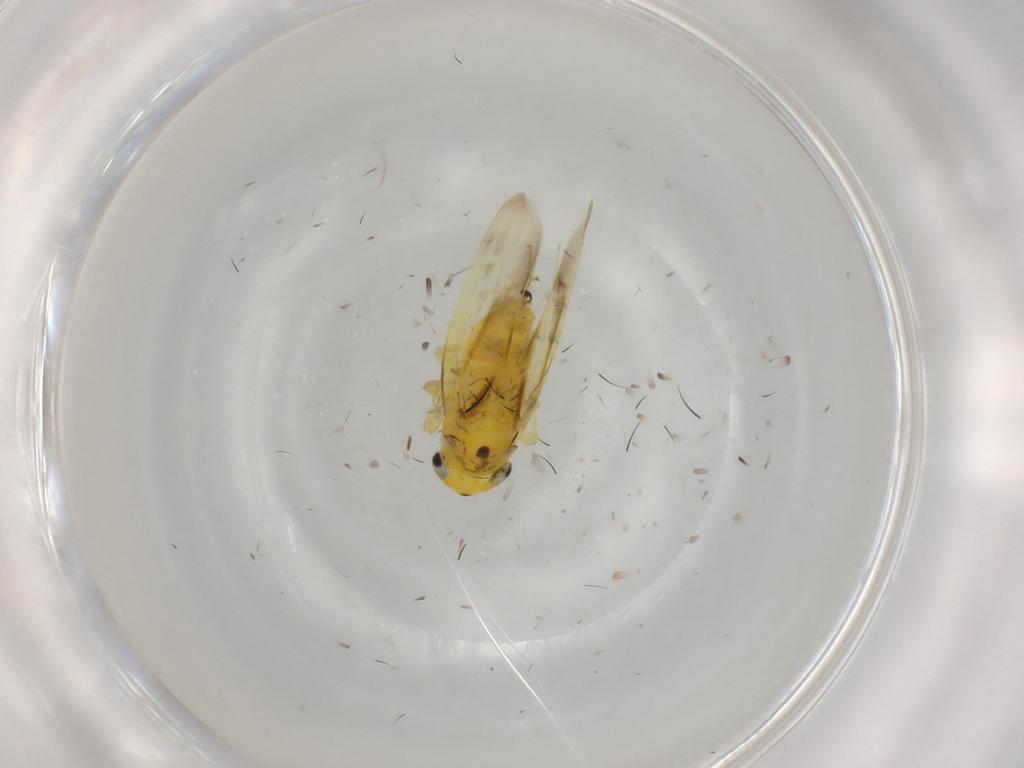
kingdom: Animalia
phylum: Arthropoda
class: Insecta
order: Hemiptera
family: Cicadellidae
